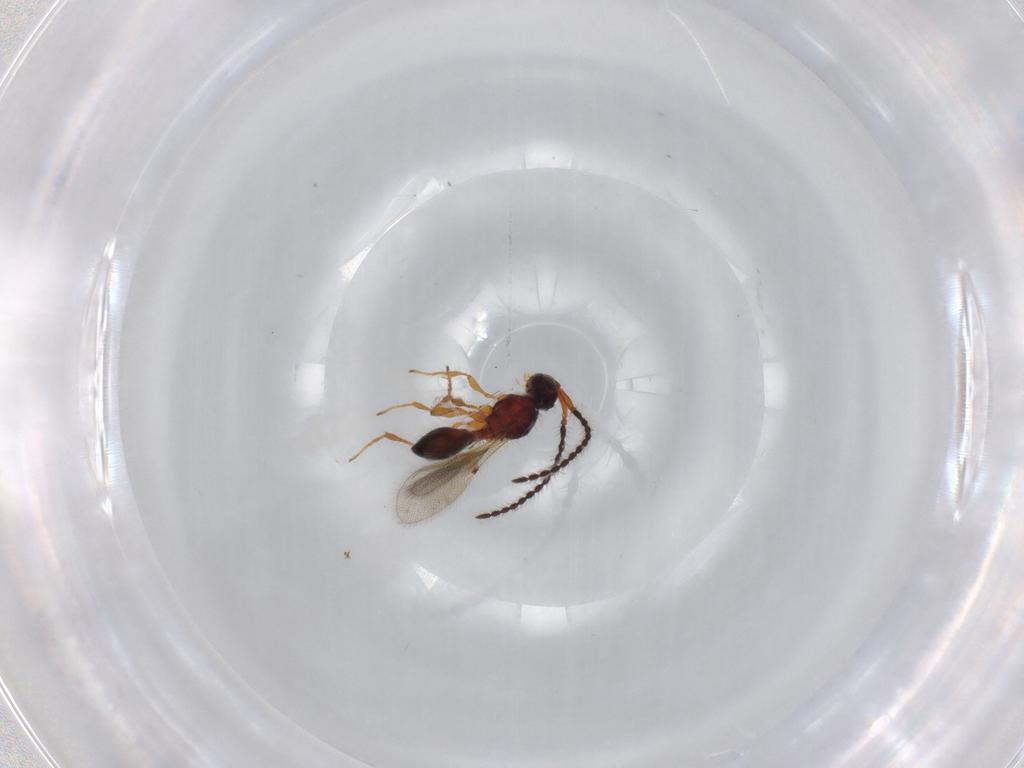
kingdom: Animalia
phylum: Arthropoda
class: Insecta
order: Hymenoptera
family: Diapriidae
